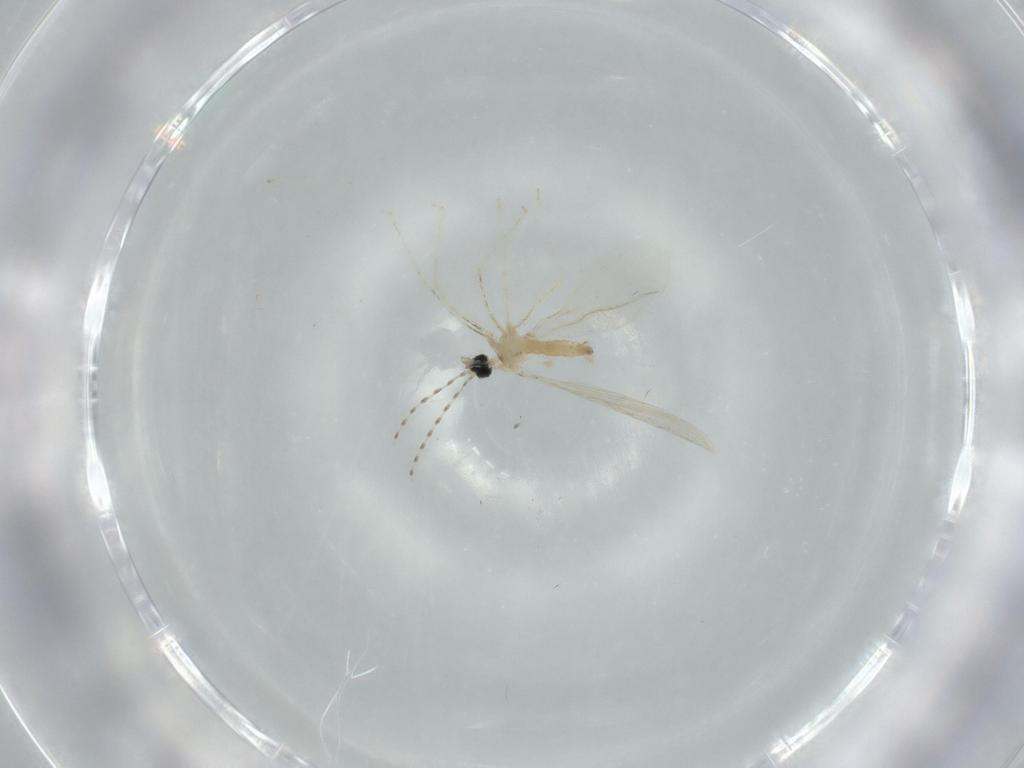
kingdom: Animalia
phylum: Arthropoda
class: Insecta
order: Diptera
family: Cecidomyiidae
